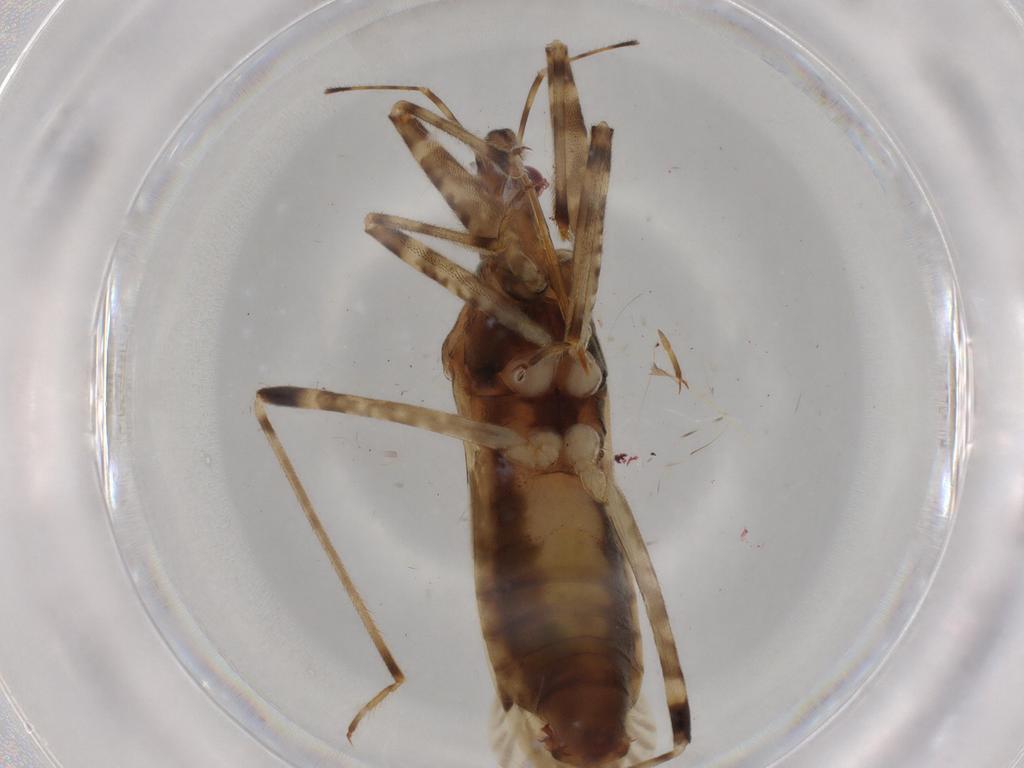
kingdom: Animalia
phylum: Arthropoda
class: Insecta
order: Hemiptera
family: Nabidae
